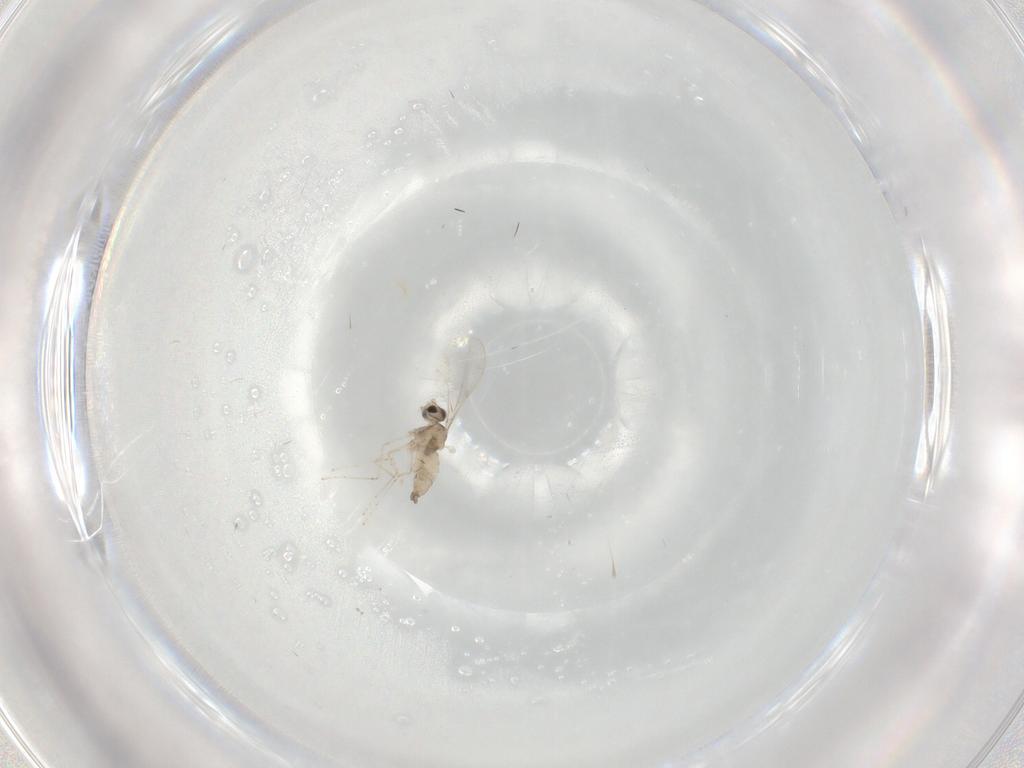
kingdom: Animalia
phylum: Arthropoda
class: Insecta
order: Diptera
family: Cecidomyiidae
